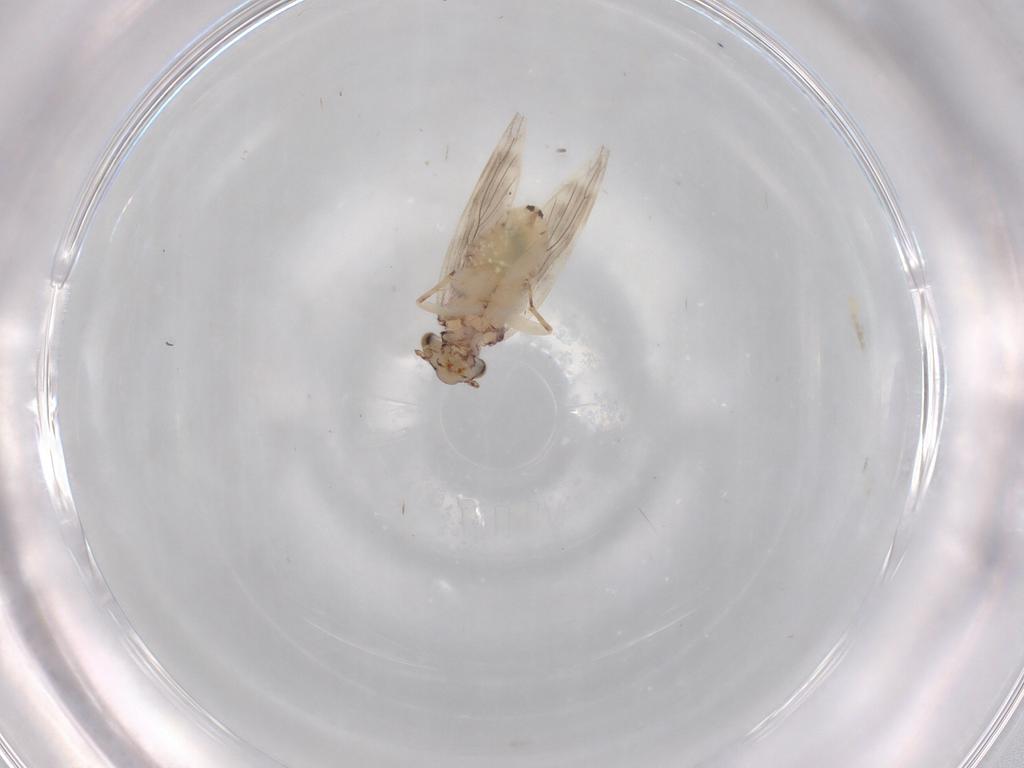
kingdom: Animalia
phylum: Arthropoda
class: Insecta
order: Psocodea
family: Lepidopsocidae
